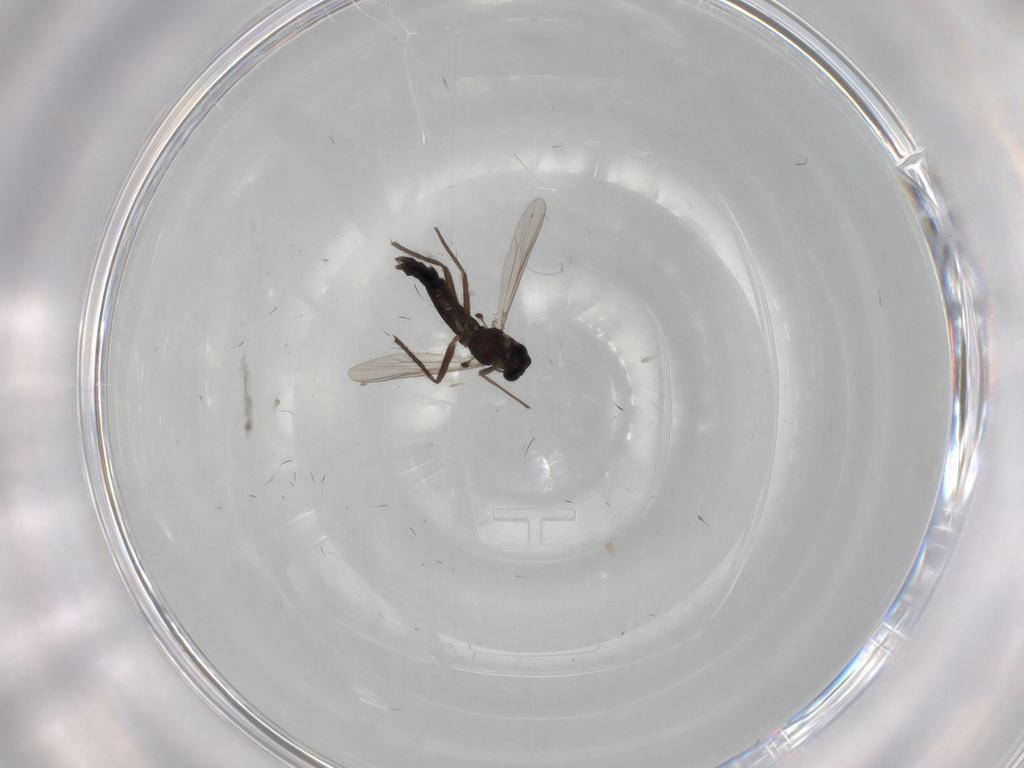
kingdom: Animalia
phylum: Arthropoda
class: Insecta
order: Diptera
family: Chironomidae
